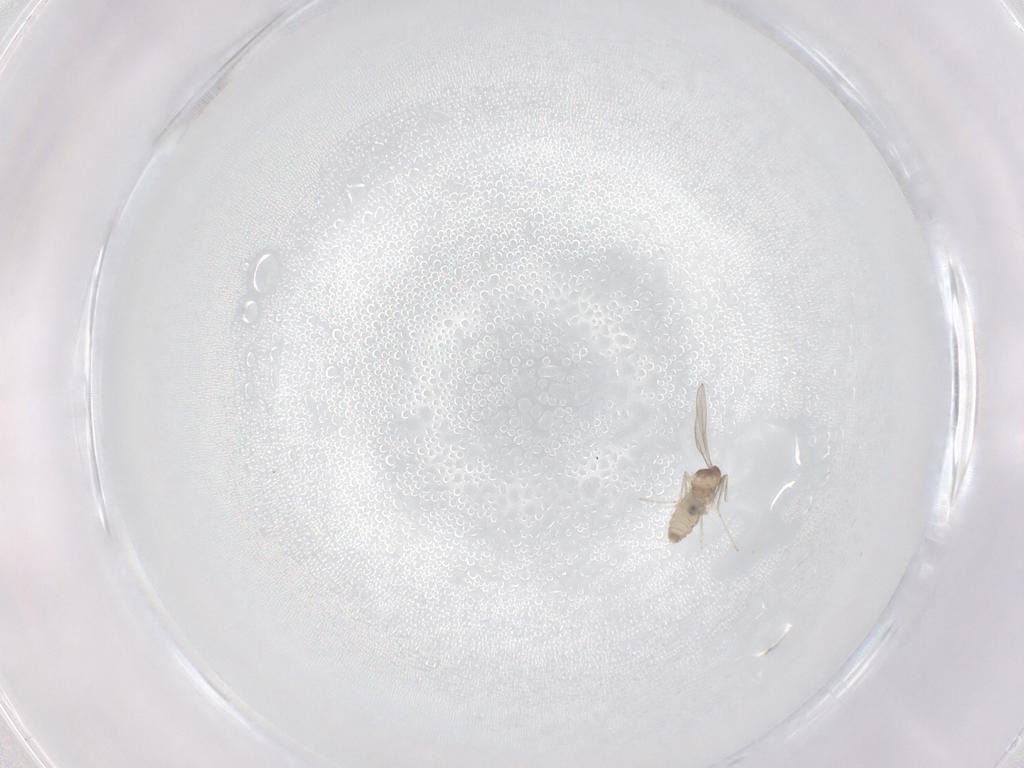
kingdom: Animalia
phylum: Arthropoda
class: Insecta
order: Diptera
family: Cecidomyiidae
